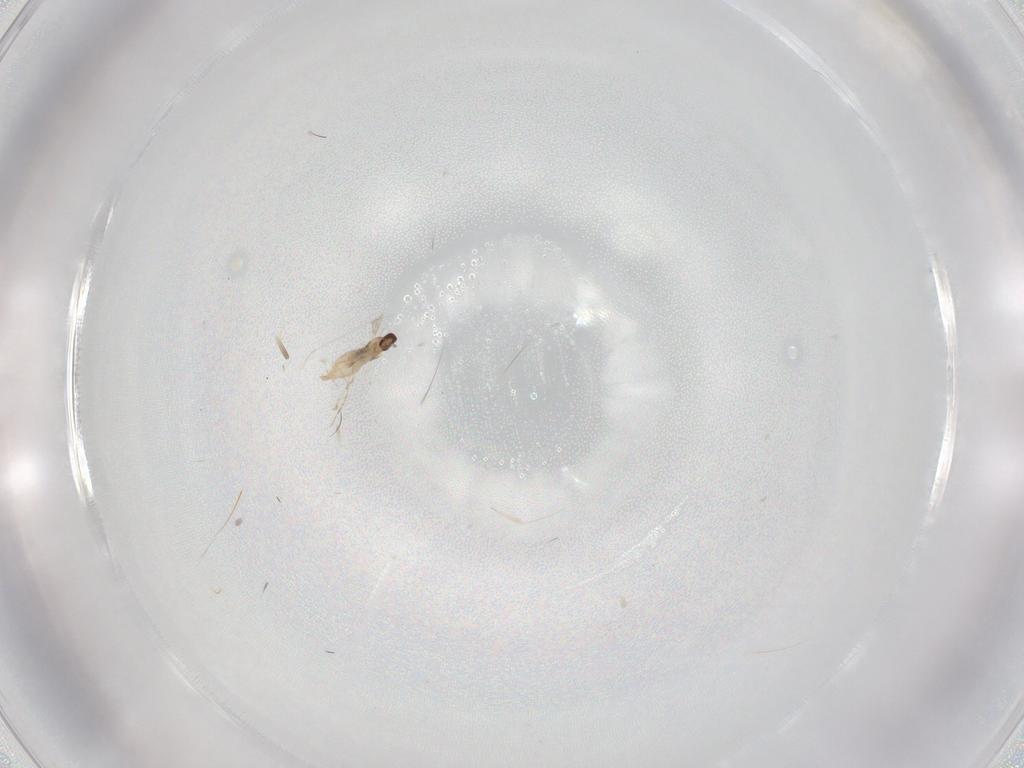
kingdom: Animalia
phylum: Arthropoda
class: Insecta
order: Diptera
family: Cecidomyiidae
